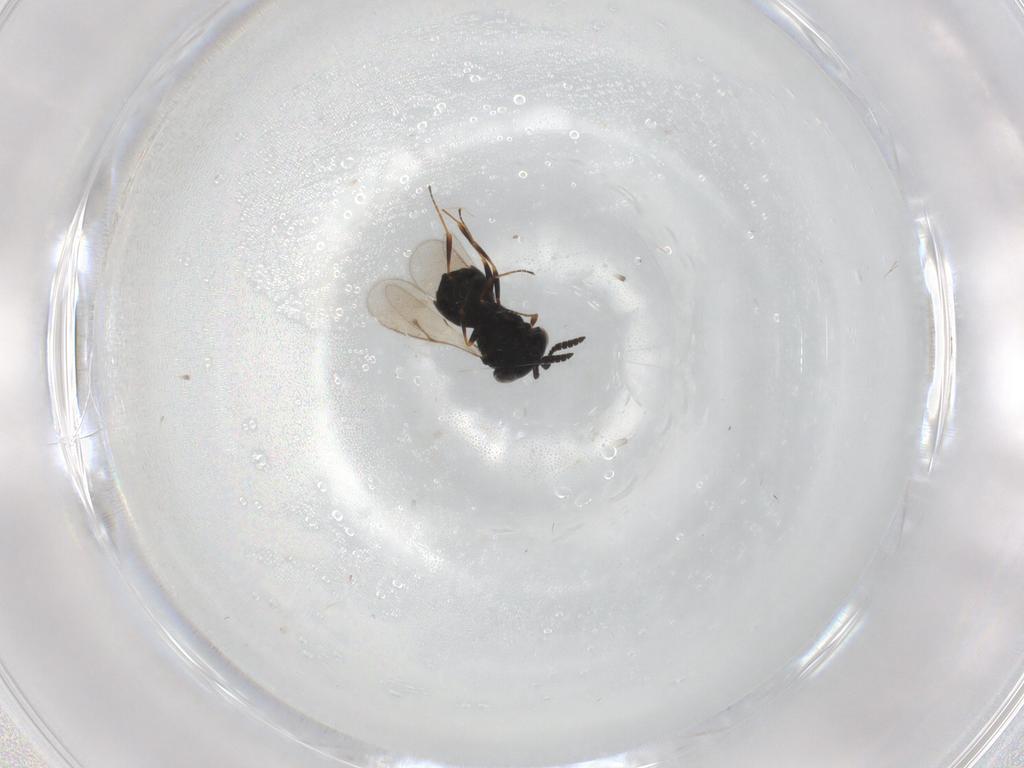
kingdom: Animalia
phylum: Arthropoda
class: Insecta
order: Hymenoptera
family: Scelionidae
